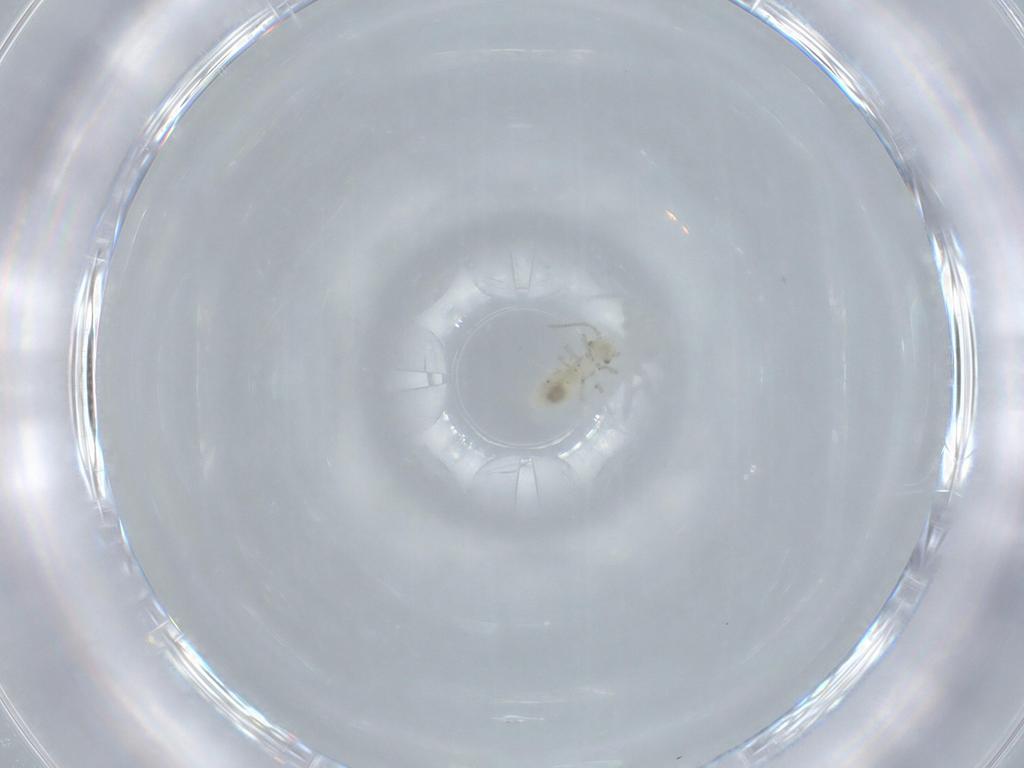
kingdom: Animalia
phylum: Arthropoda
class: Insecta
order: Psocodea
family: Caeciliusidae
